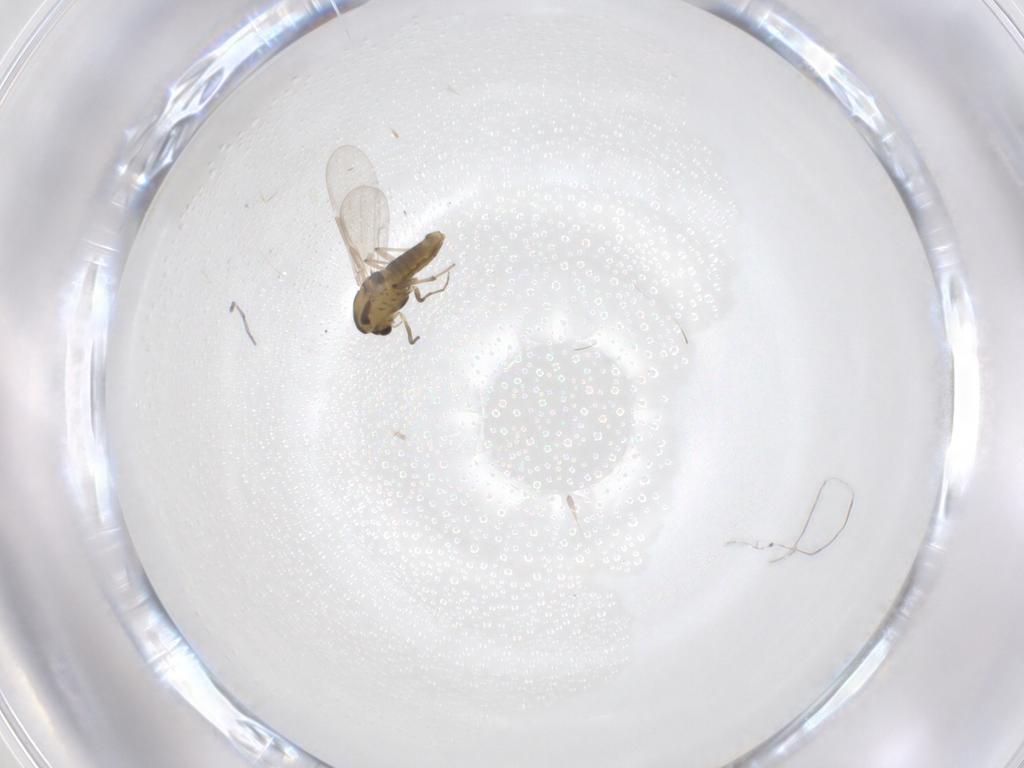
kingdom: Animalia
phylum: Arthropoda
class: Insecta
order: Diptera
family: Chironomidae
